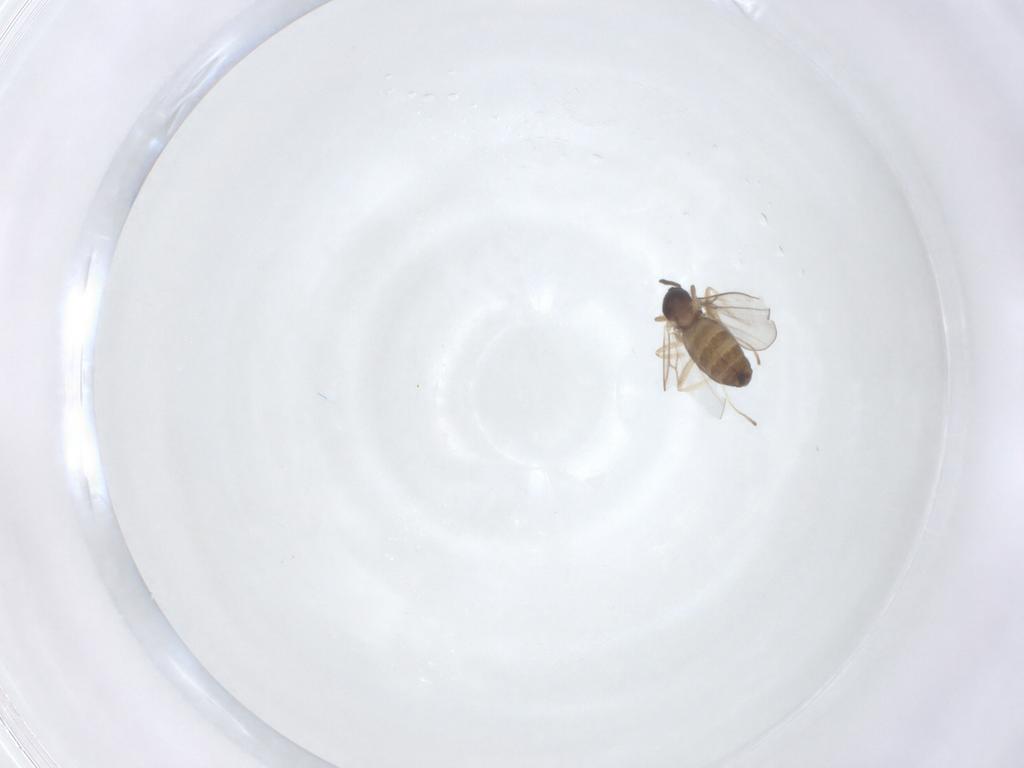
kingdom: Animalia
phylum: Arthropoda
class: Insecta
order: Diptera
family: Cecidomyiidae
